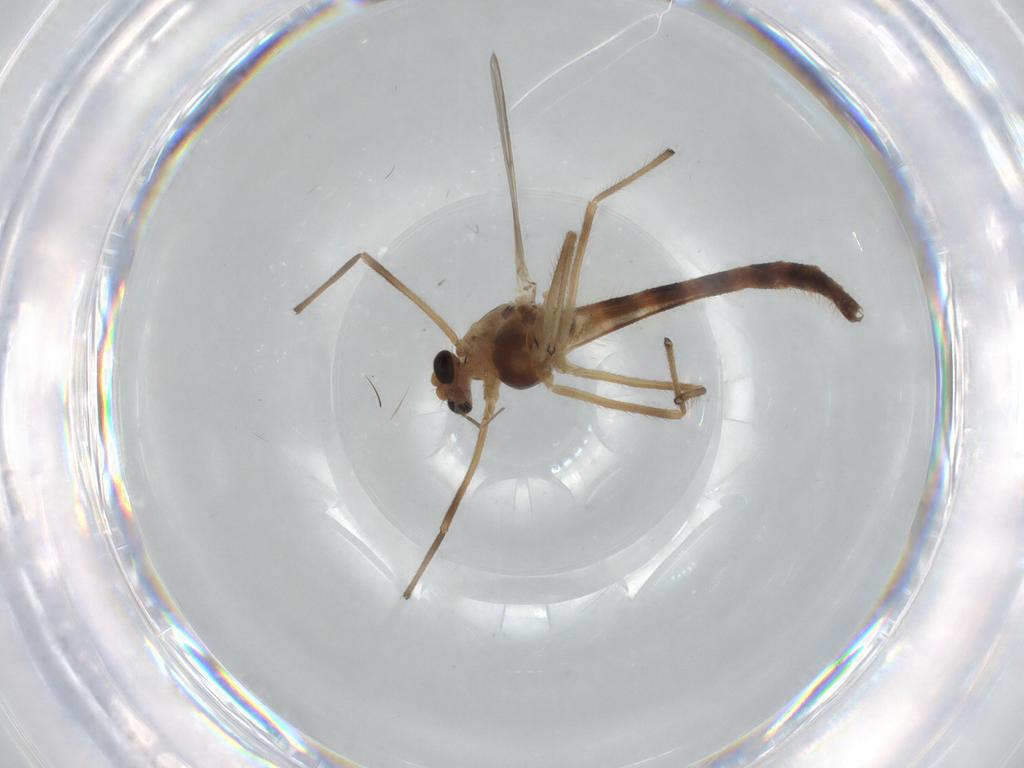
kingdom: Animalia
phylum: Arthropoda
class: Insecta
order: Diptera
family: Chironomidae
